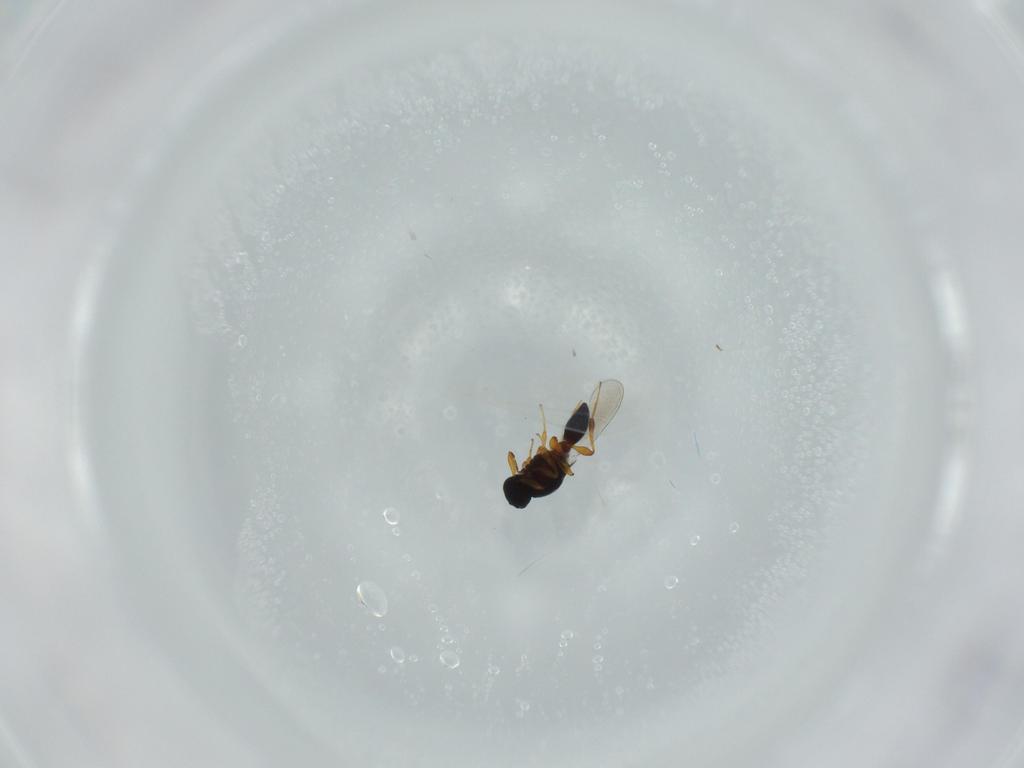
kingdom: Animalia
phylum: Arthropoda
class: Insecta
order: Hymenoptera
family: Platygastridae
